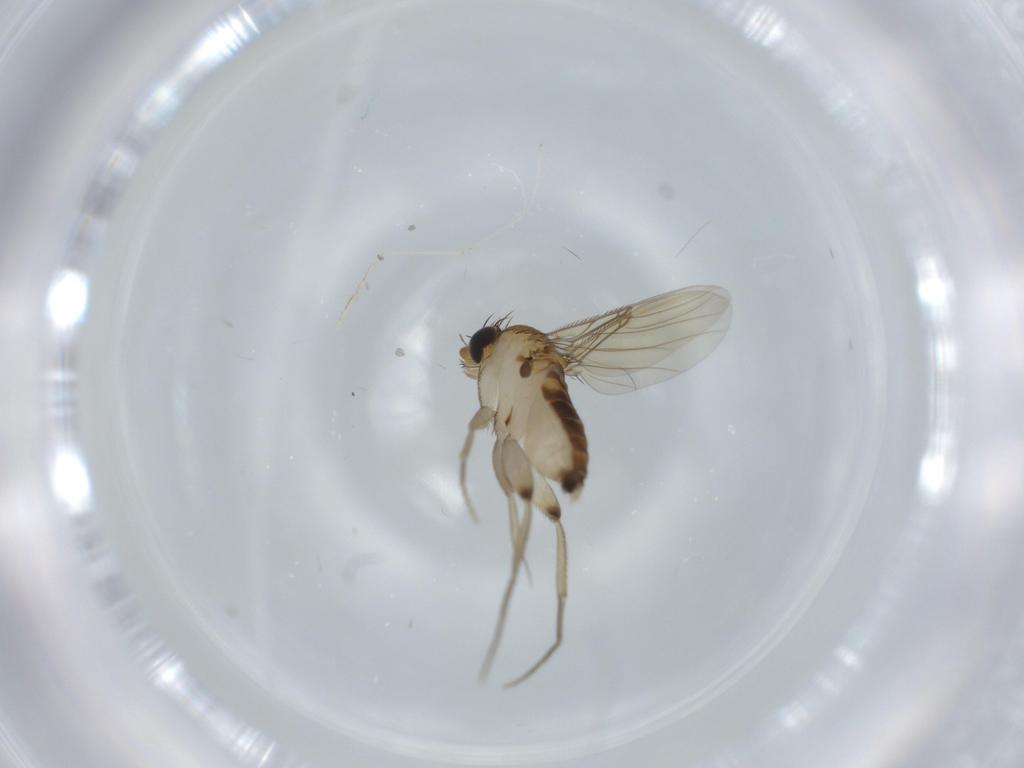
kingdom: Animalia
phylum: Arthropoda
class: Insecta
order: Diptera
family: Phoridae
